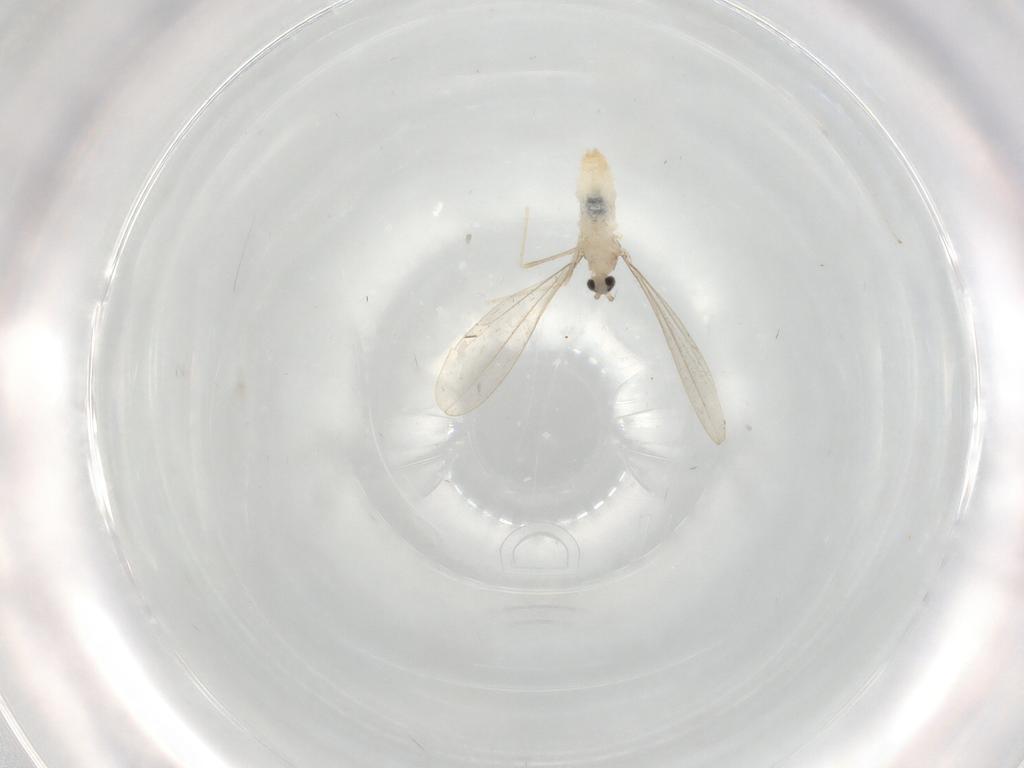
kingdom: Animalia
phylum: Arthropoda
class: Insecta
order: Diptera
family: Cecidomyiidae
